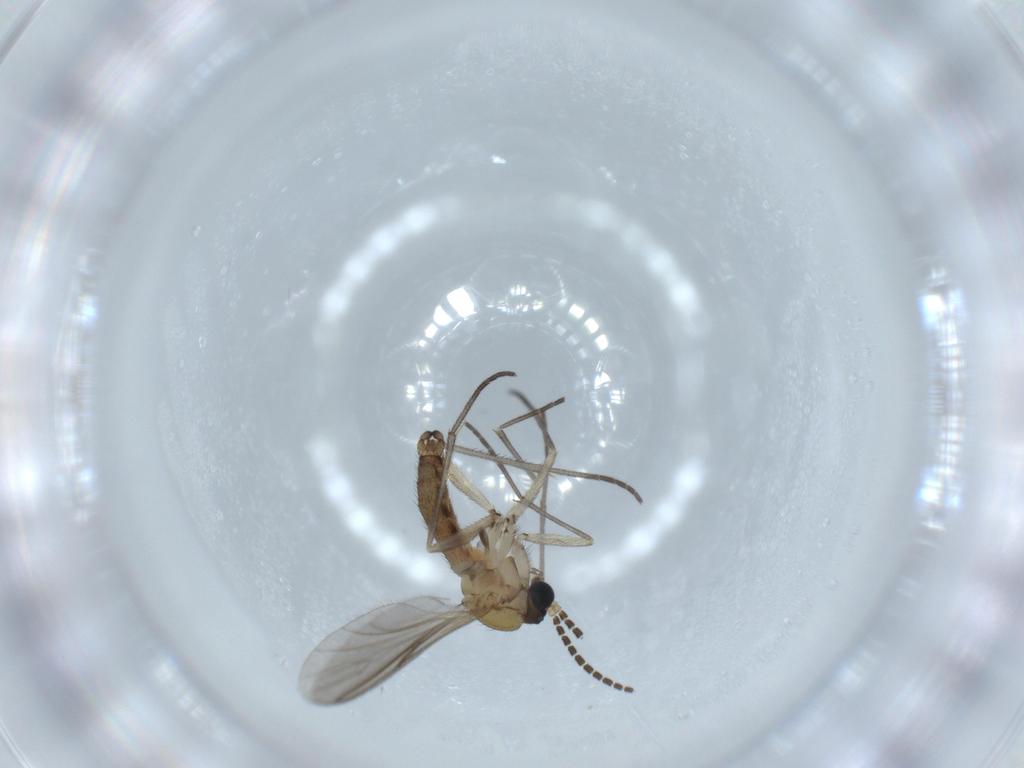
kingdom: Animalia
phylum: Arthropoda
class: Insecta
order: Diptera
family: Sciaridae
